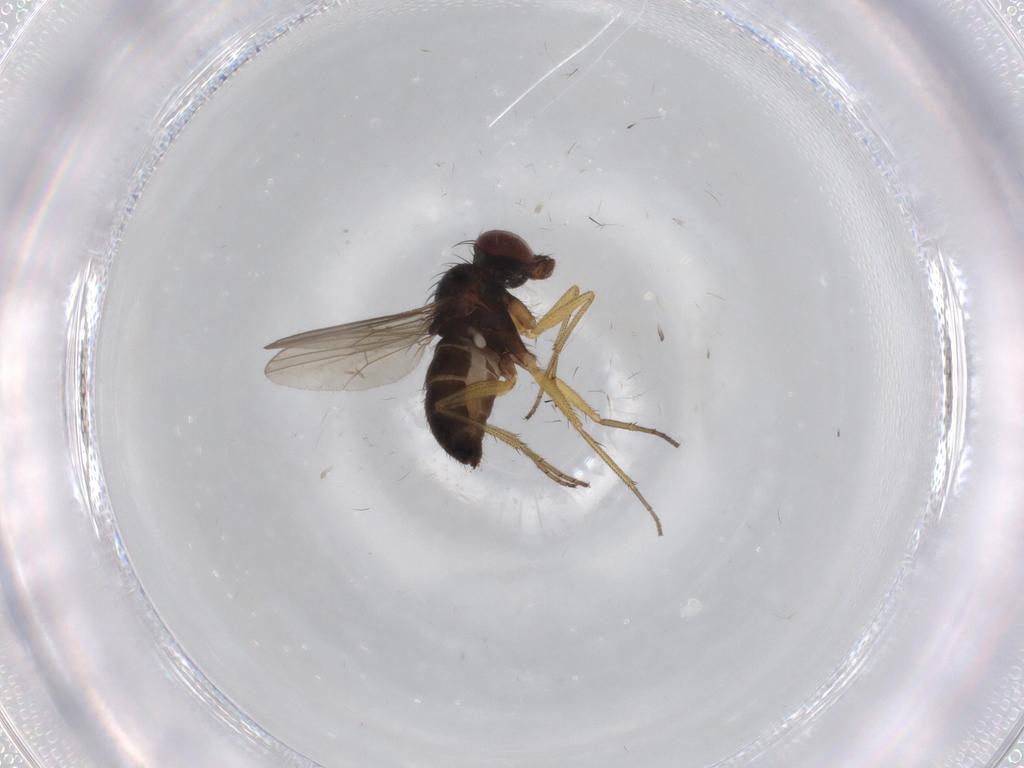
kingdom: Animalia
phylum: Arthropoda
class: Insecta
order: Diptera
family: Dolichopodidae
